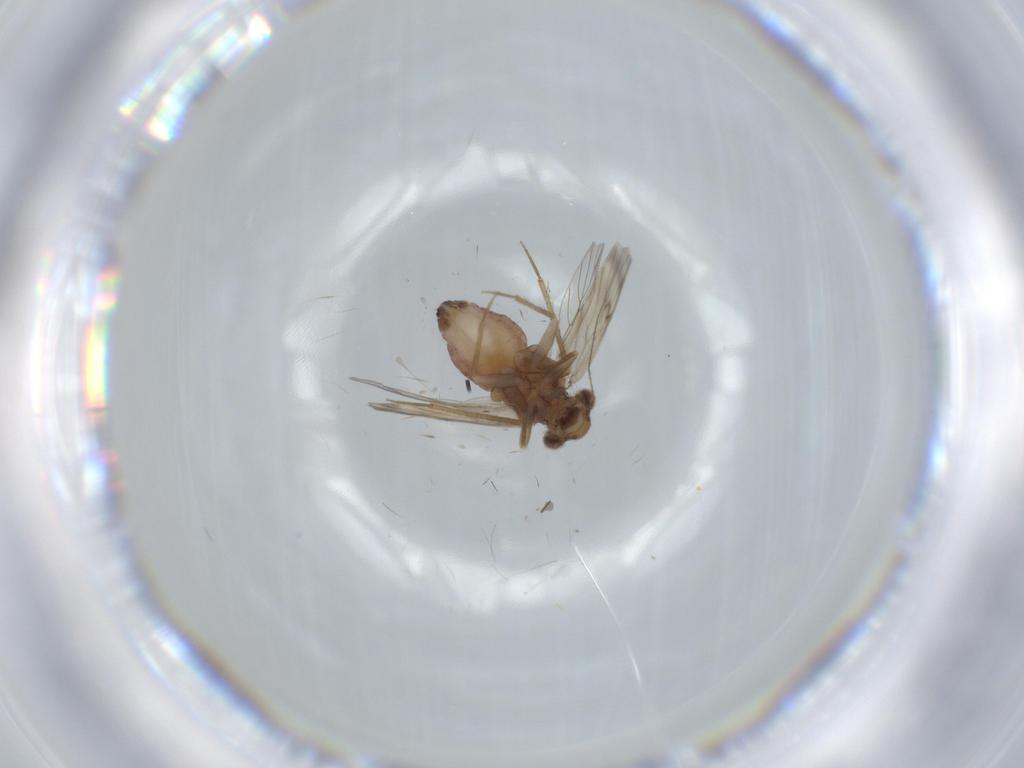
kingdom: Animalia
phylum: Arthropoda
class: Insecta
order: Psocodea
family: Lepidopsocidae
